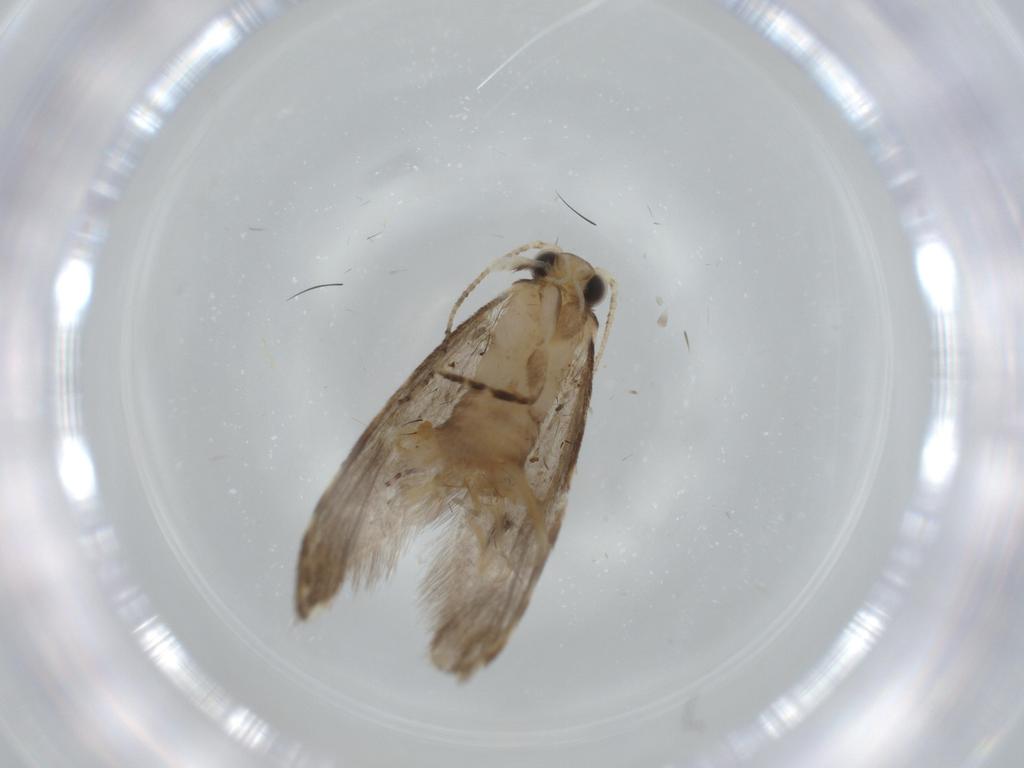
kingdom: Animalia
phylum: Arthropoda
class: Insecta
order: Lepidoptera
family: Tineidae
